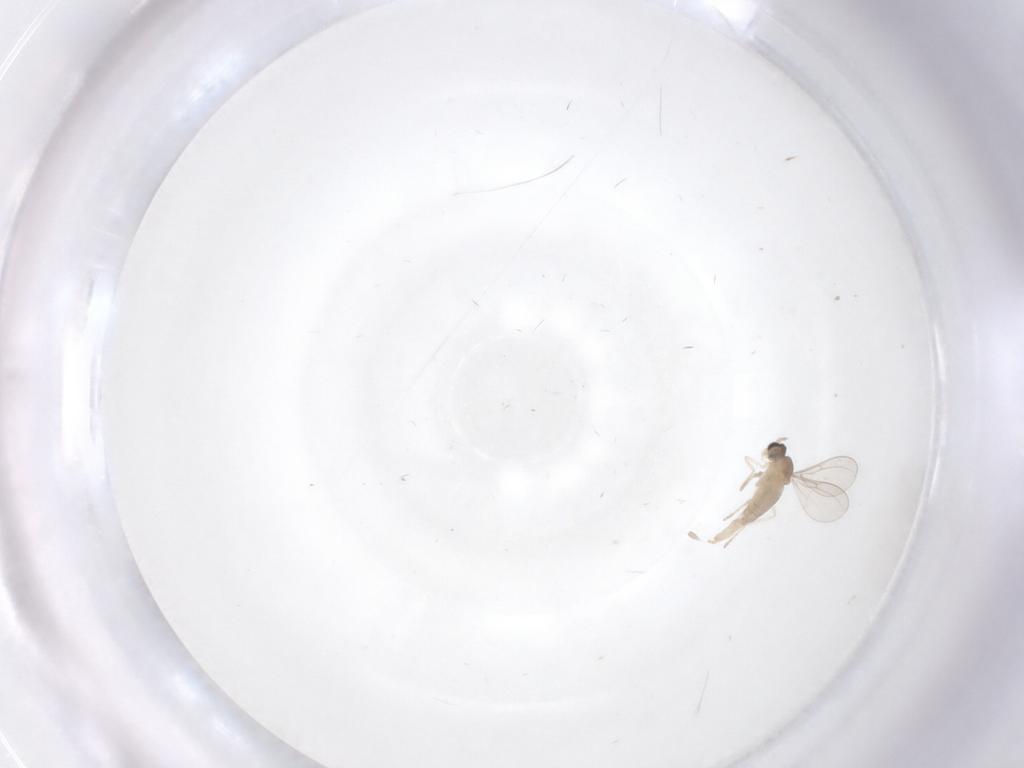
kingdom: Animalia
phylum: Arthropoda
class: Insecta
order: Diptera
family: Cecidomyiidae
